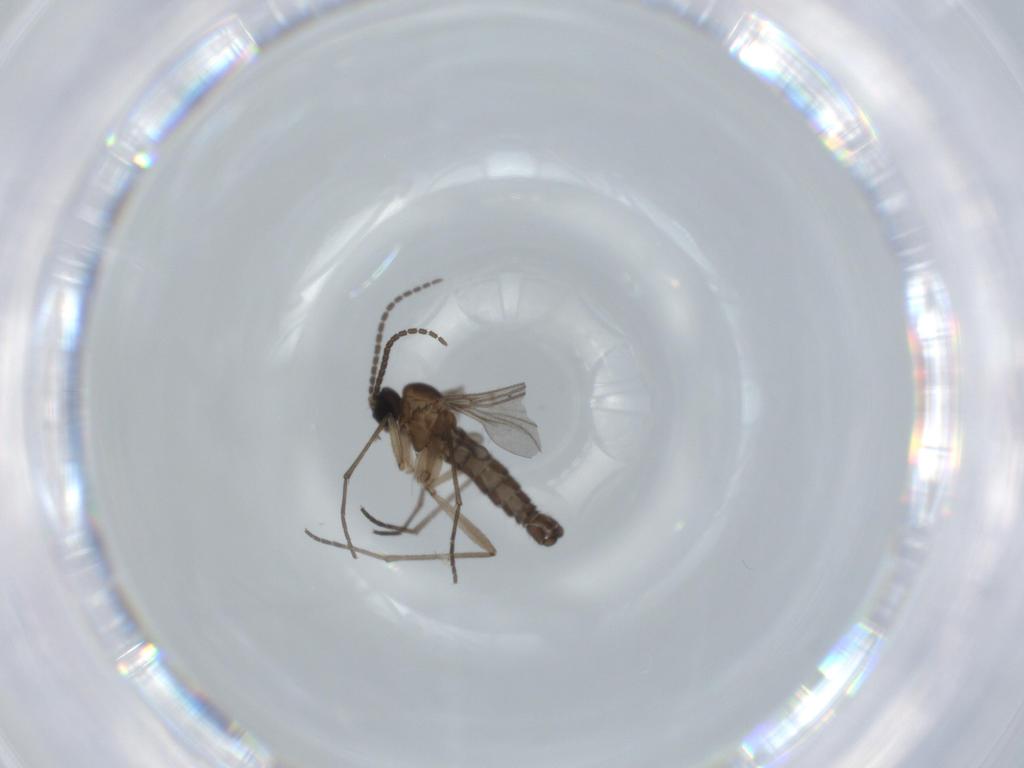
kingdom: Animalia
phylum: Arthropoda
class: Insecta
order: Diptera
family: Sciaridae
